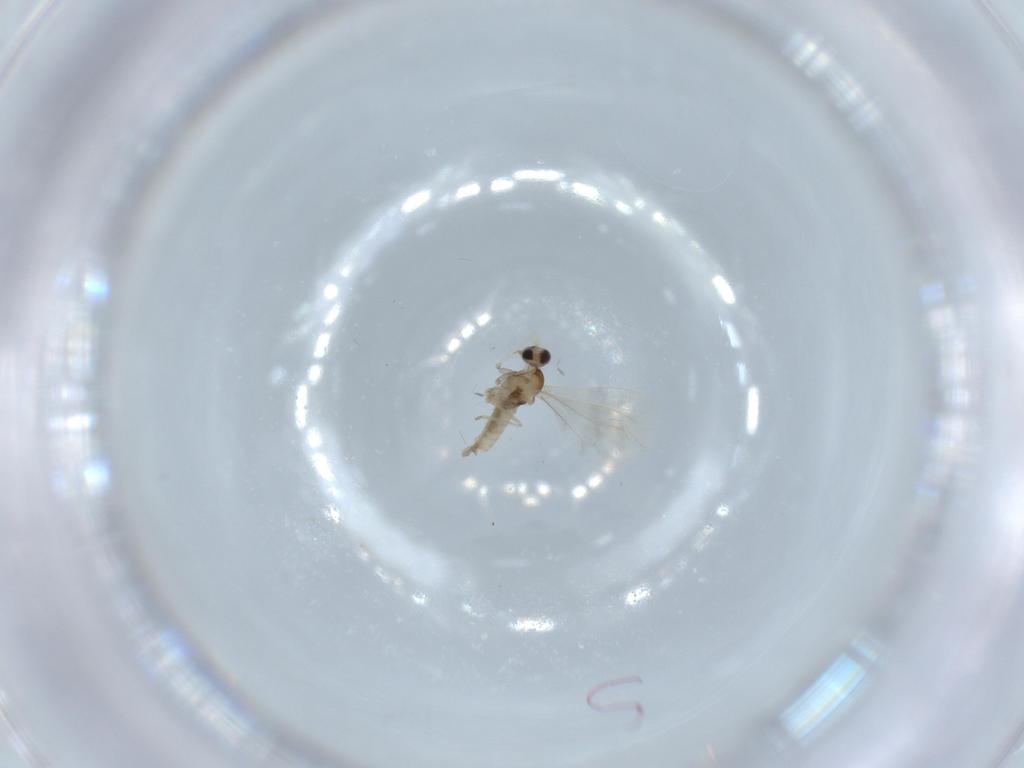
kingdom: Animalia
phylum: Arthropoda
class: Insecta
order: Diptera
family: Cecidomyiidae
